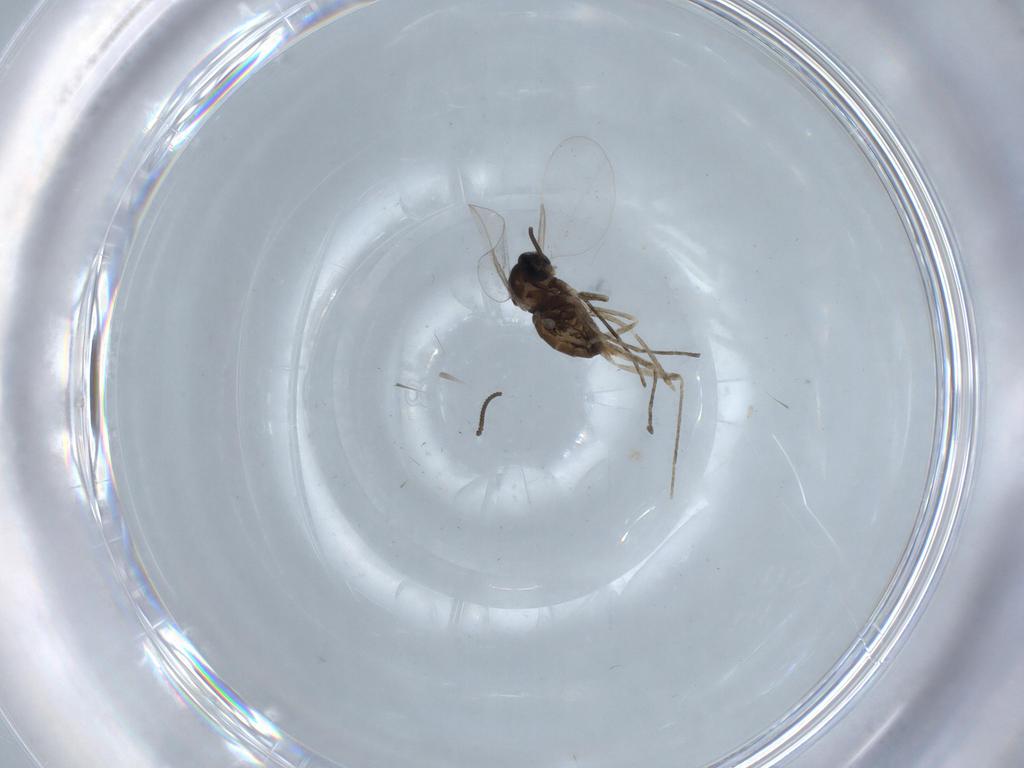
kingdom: Animalia
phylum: Arthropoda
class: Insecta
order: Diptera
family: Cecidomyiidae
